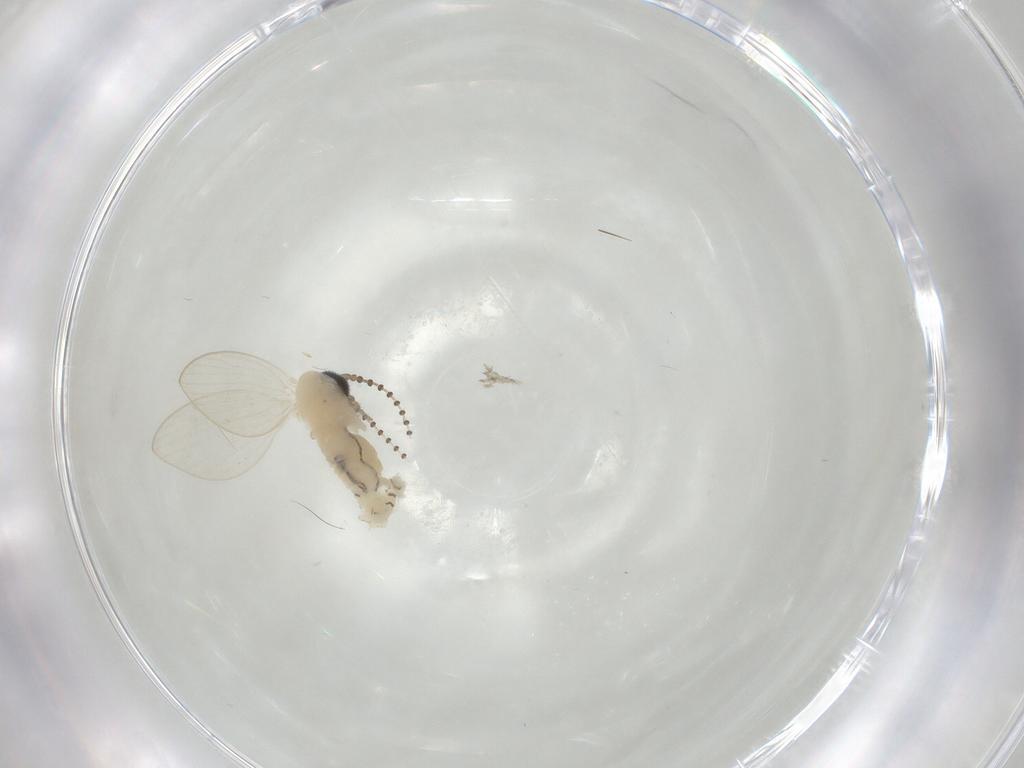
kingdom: Animalia
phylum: Arthropoda
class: Insecta
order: Diptera
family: Psychodidae
